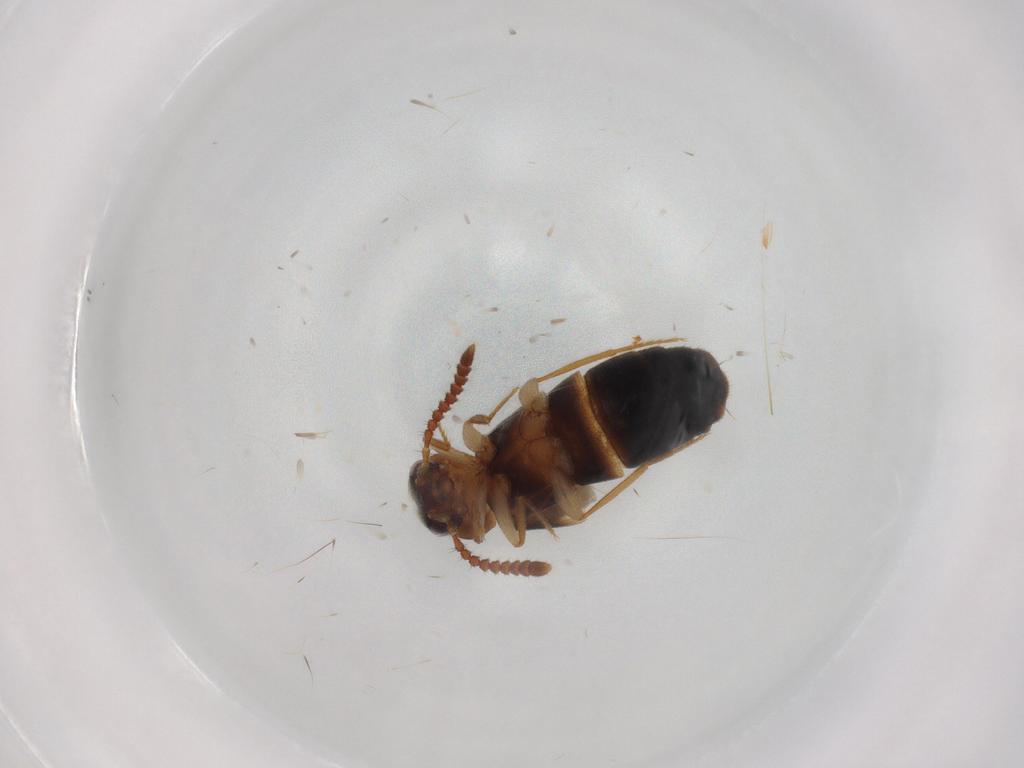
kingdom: Animalia
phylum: Arthropoda
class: Insecta
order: Coleoptera
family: Staphylinidae
